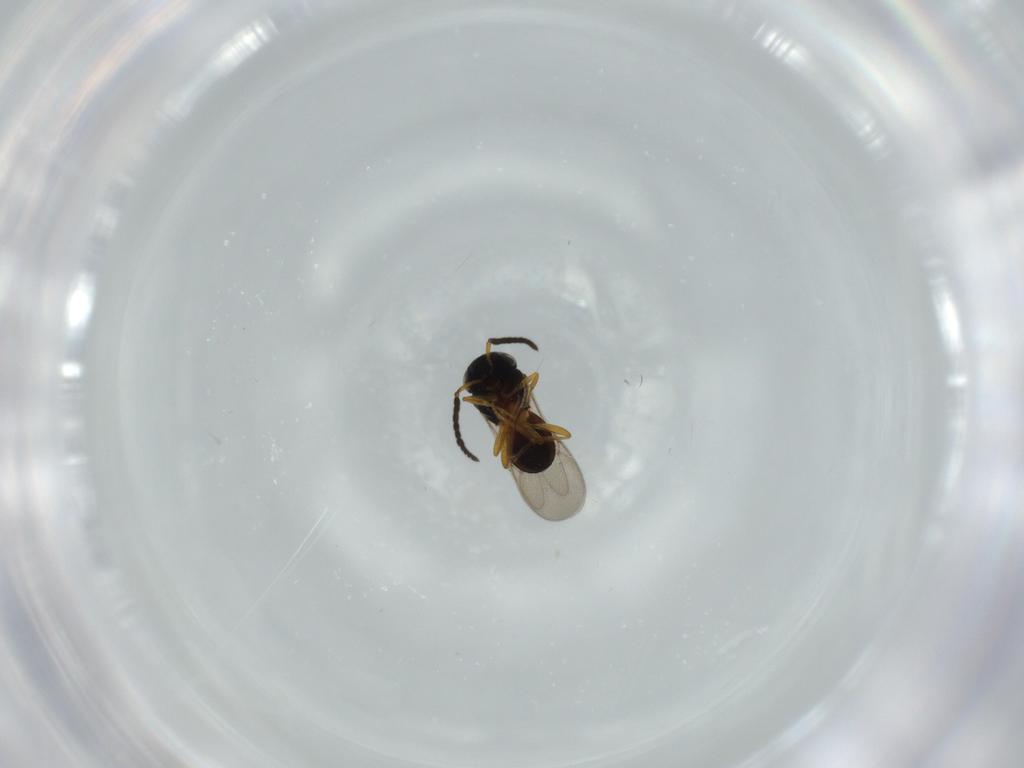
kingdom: Animalia
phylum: Arthropoda
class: Insecta
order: Hymenoptera
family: Scelionidae
